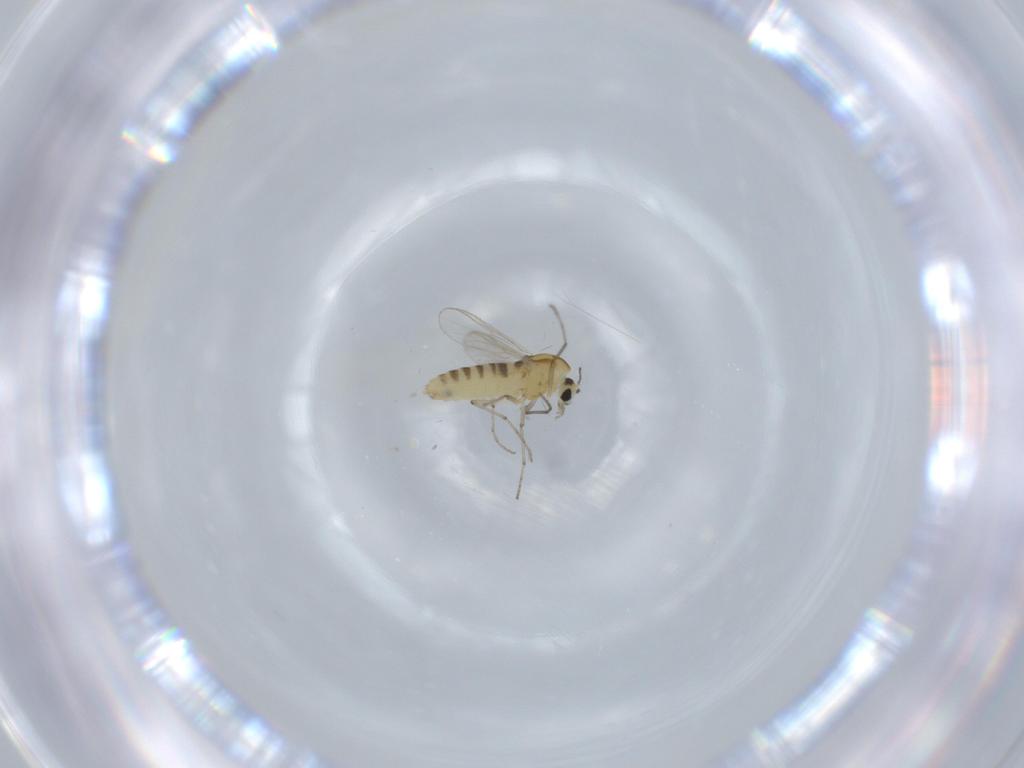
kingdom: Animalia
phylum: Arthropoda
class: Insecta
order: Diptera
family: Chironomidae
